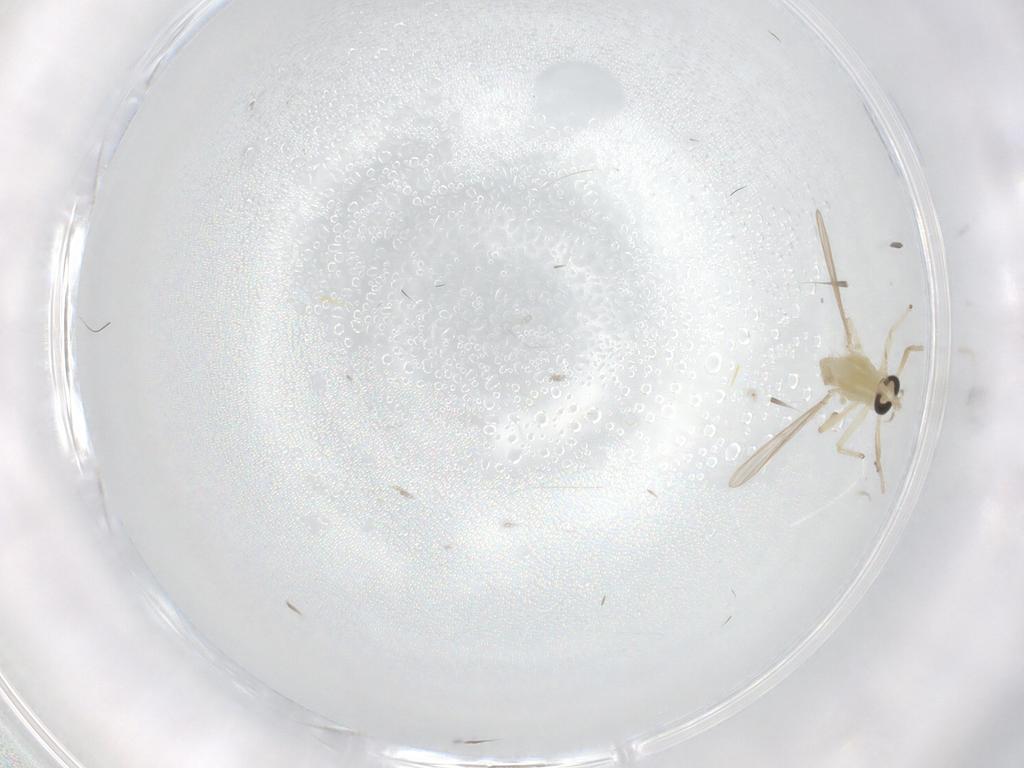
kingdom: Animalia
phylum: Arthropoda
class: Insecta
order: Diptera
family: Chironomidae
